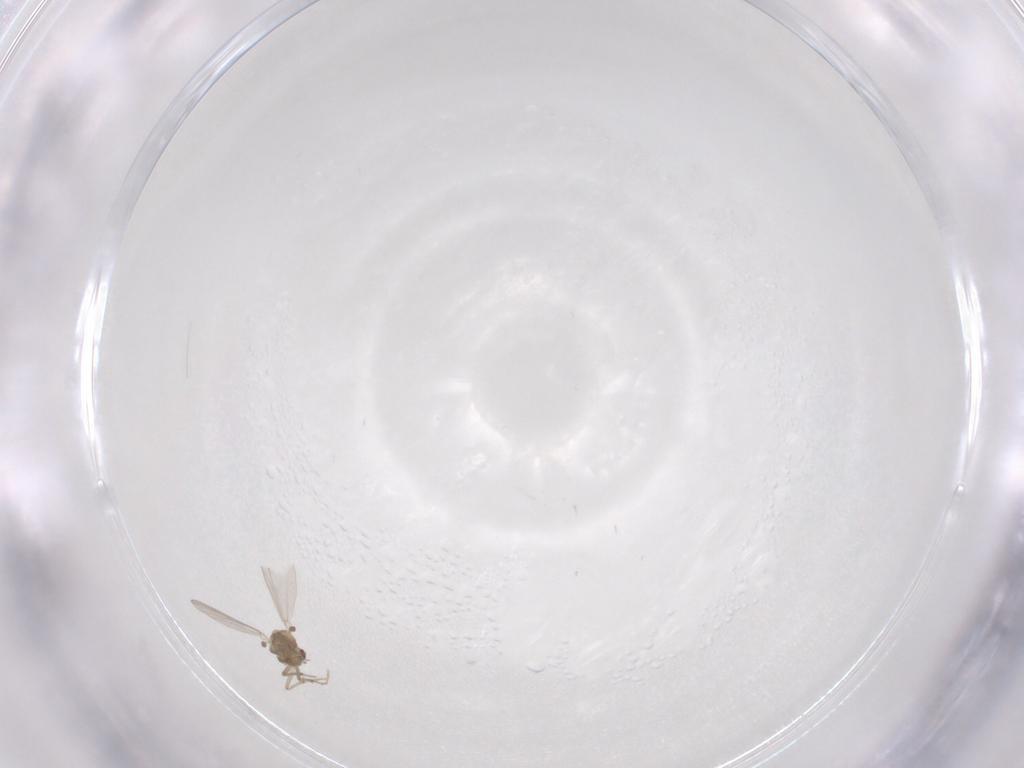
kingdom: Animalia
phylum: Arthropoda
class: Insecta
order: Diptera
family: Chironomidae
